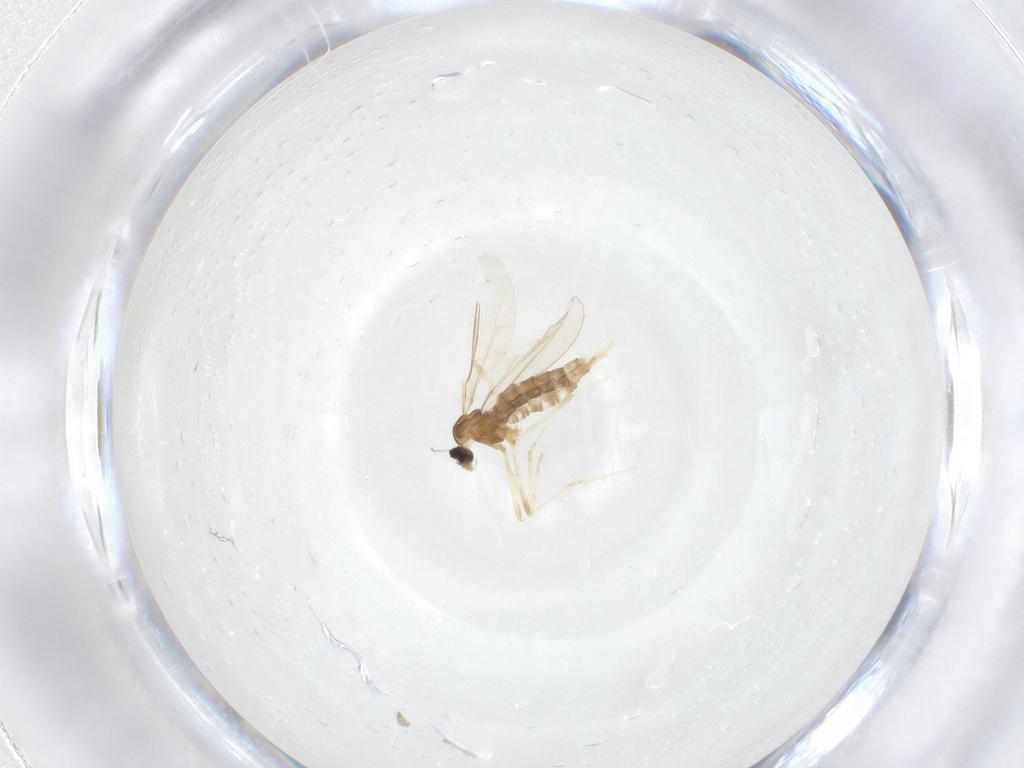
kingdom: Animalia
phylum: Arthropoda
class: Insecta
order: Diptera
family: Cecidomyiidae
